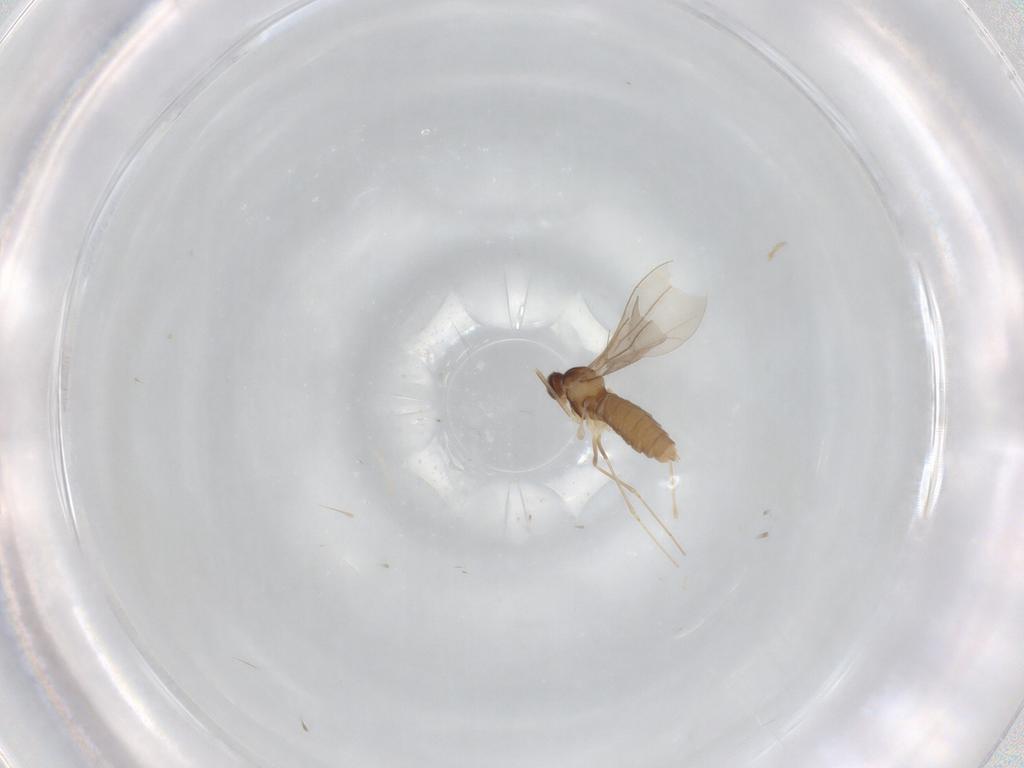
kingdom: Animalia
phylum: Arthropoda
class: Insecta
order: Diptera
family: Cecidomyiidae
